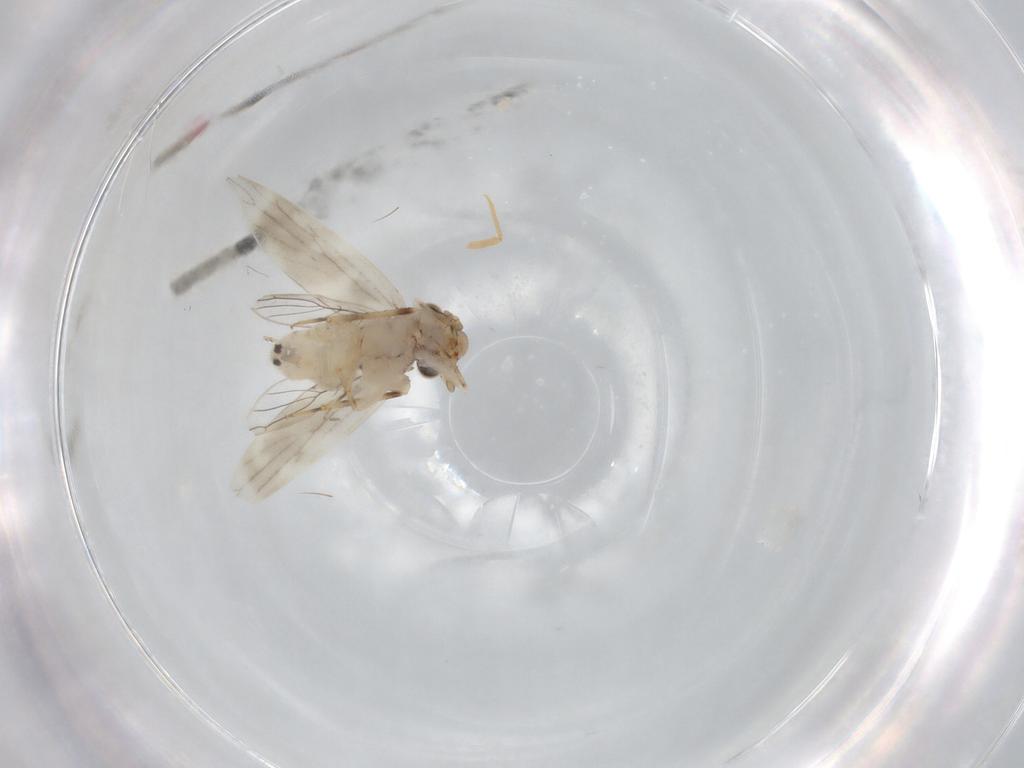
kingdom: Animalia
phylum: Arthropoda
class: Insecta
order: Psocodea
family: Lepidopsocidae
